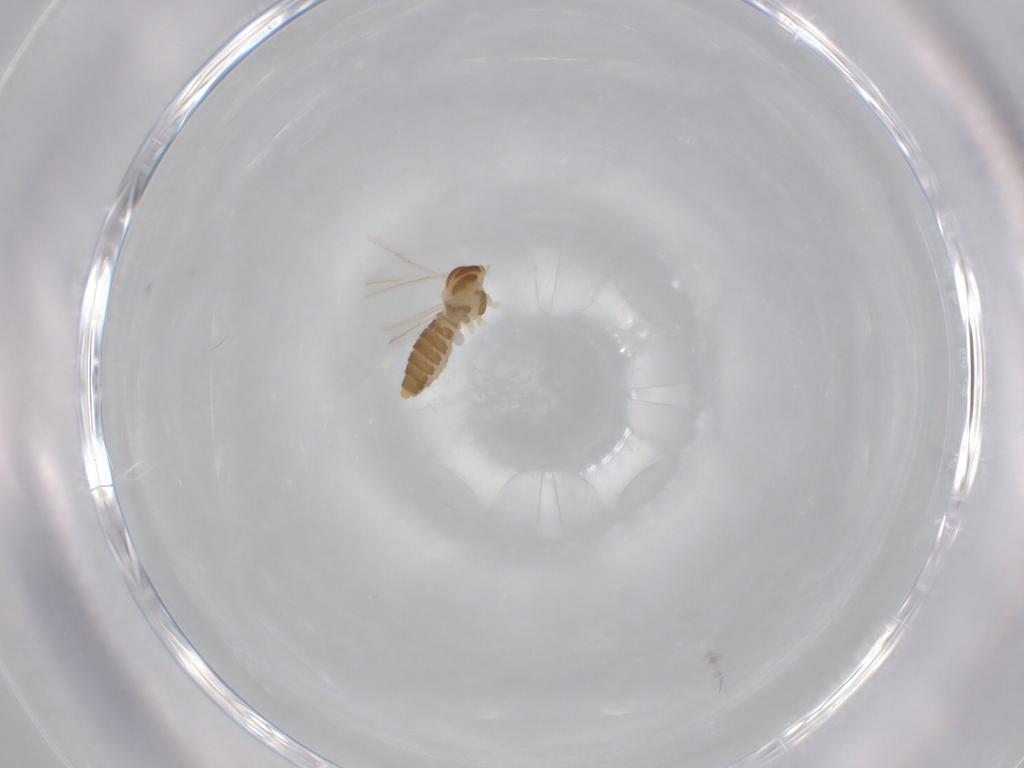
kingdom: Animalia
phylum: Arthropoda
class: Insecta
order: Diptera
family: Cecidomyiidae
